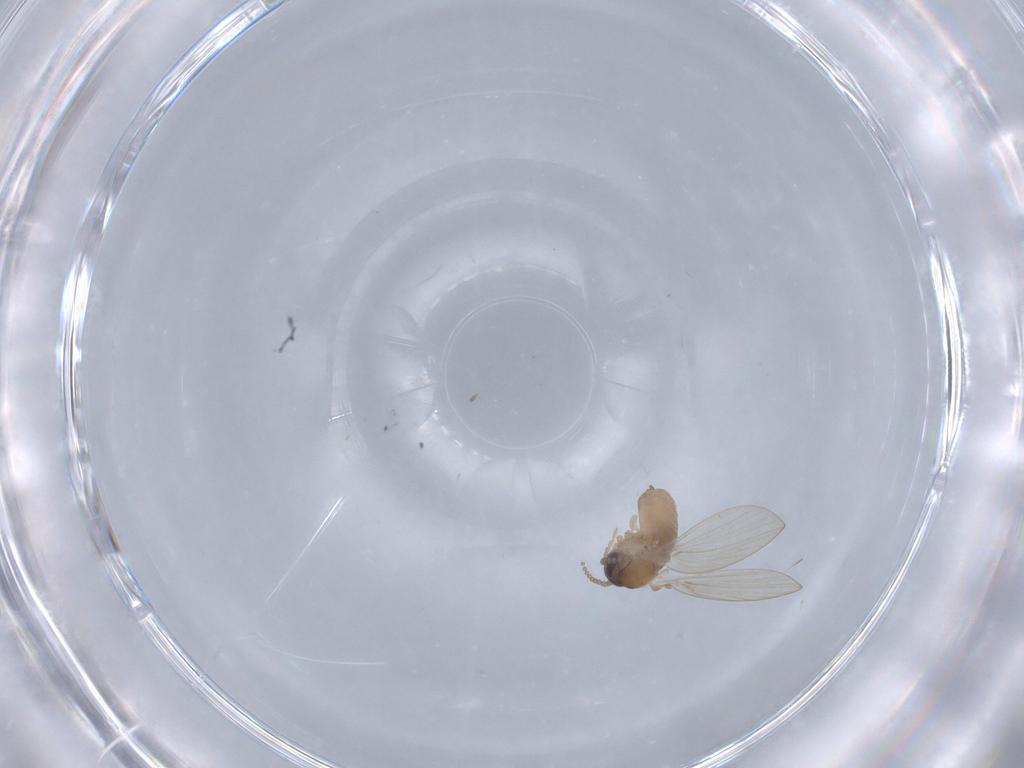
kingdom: Animalia
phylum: Arthropoda
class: Insecta
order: Diptera
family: Psychodidae
